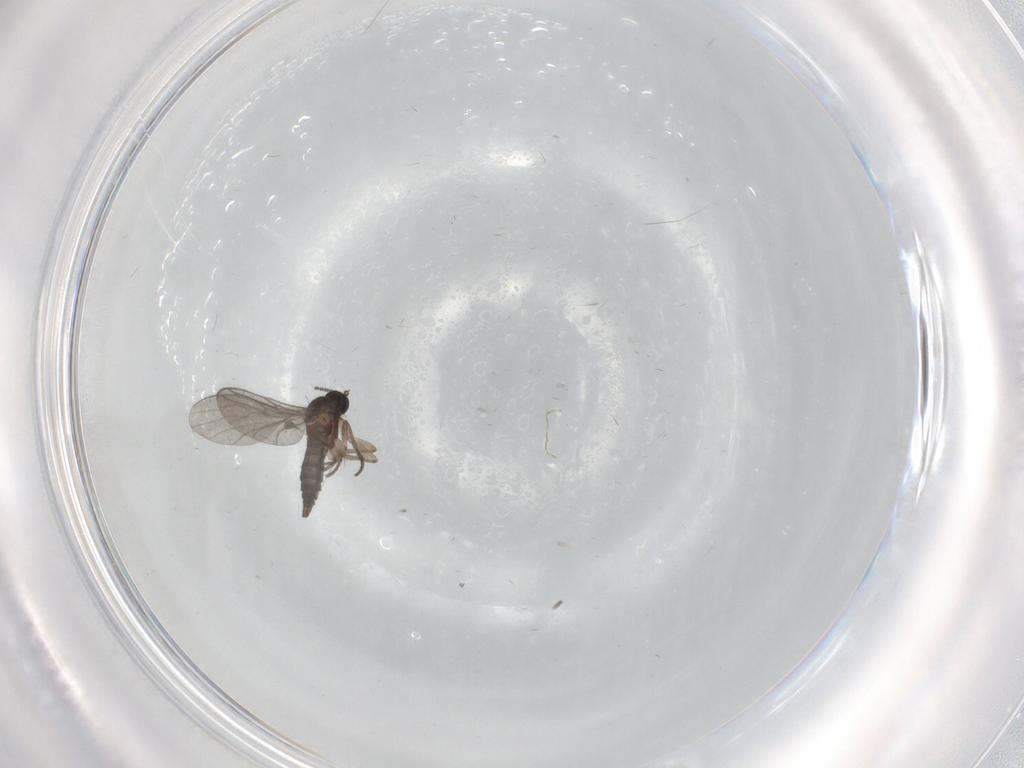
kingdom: Animalia
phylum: Arthropoda
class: Insecta
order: Diptera
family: Sciaridae
